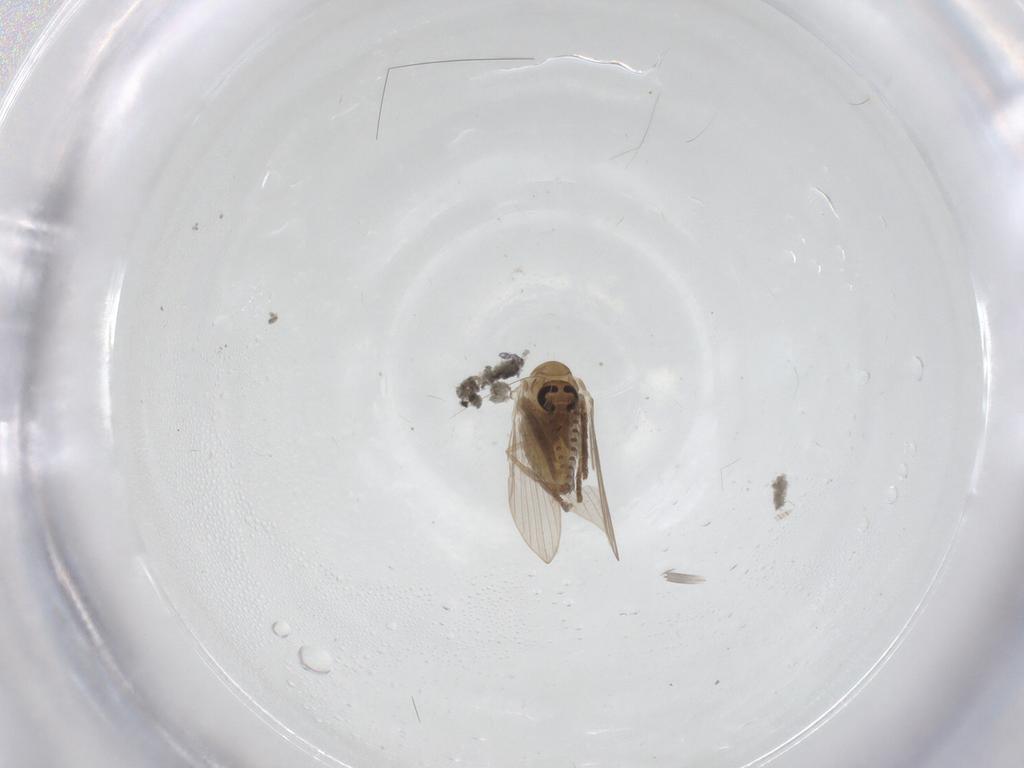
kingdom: Animalia
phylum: Arthropoda
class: Insecta
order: Diptera
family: Psychodidae
